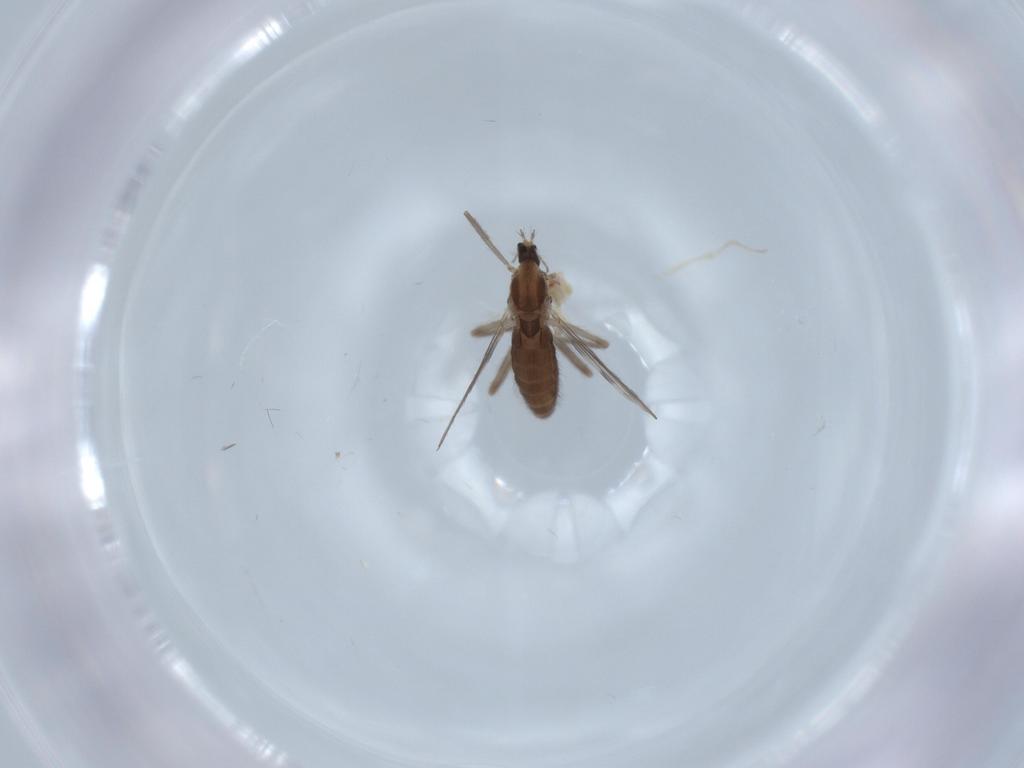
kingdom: Animalia
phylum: Arthropoda
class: Insecta
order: Diptera
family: Chironomidae
